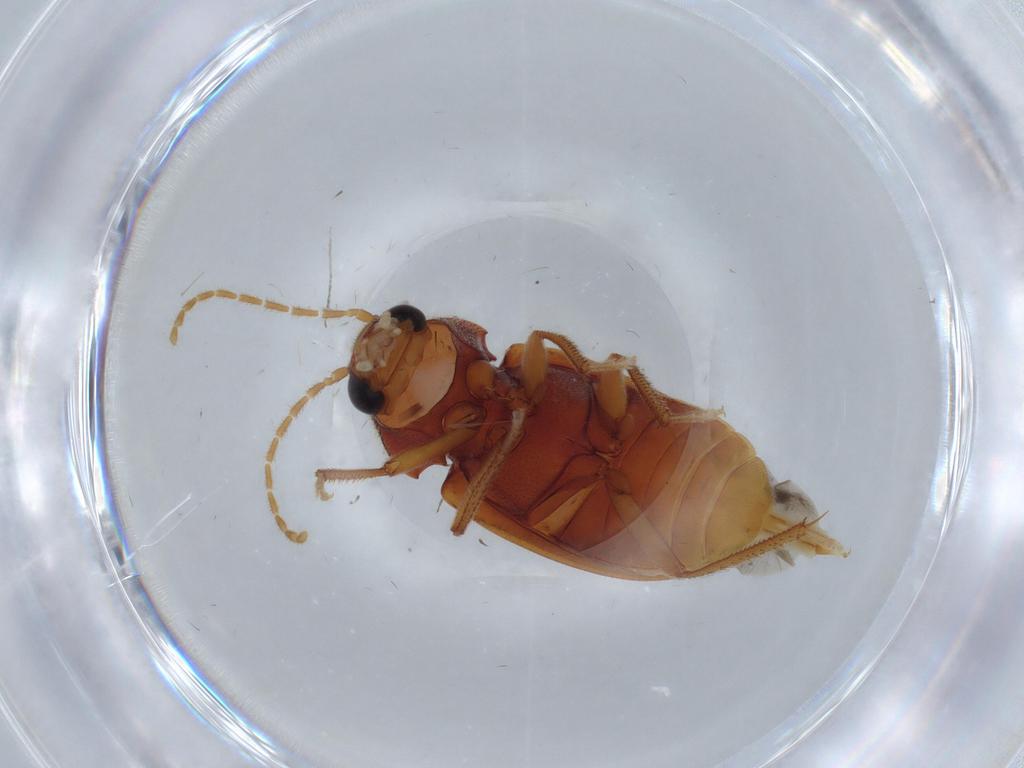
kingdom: Animalia
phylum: Arthropoda
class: Insecta
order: Coleoptera
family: Ptilodactylidae
